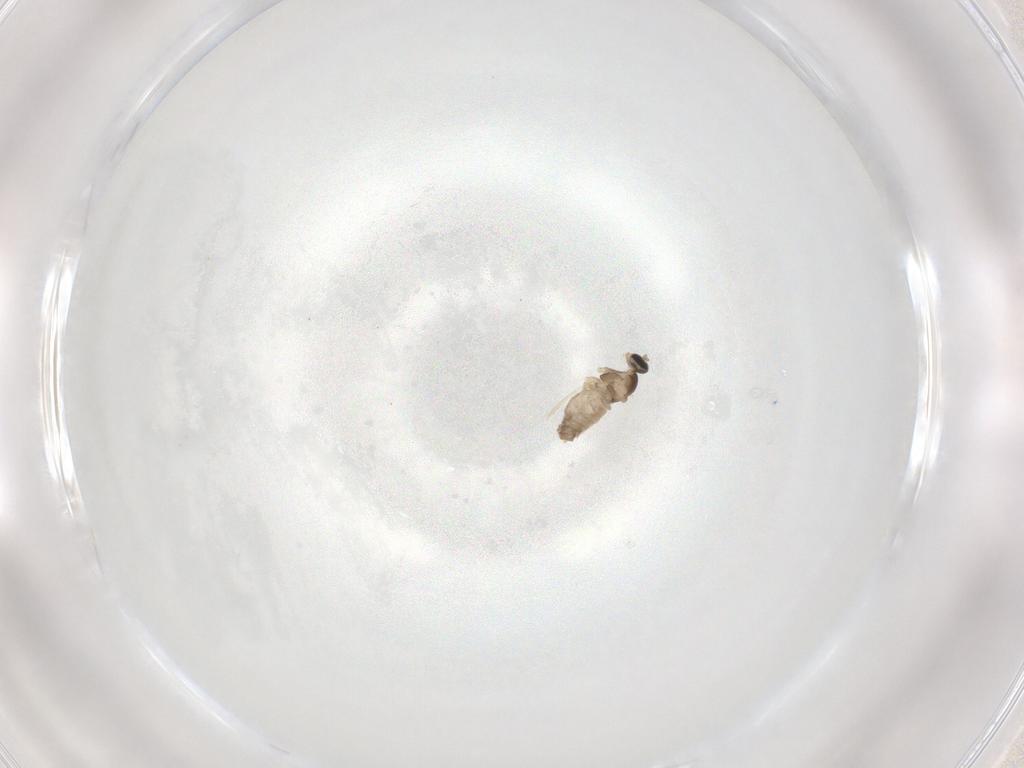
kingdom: Animalia
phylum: Arthropoda
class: Insecta
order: Diptera
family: Cecidomyiidae
